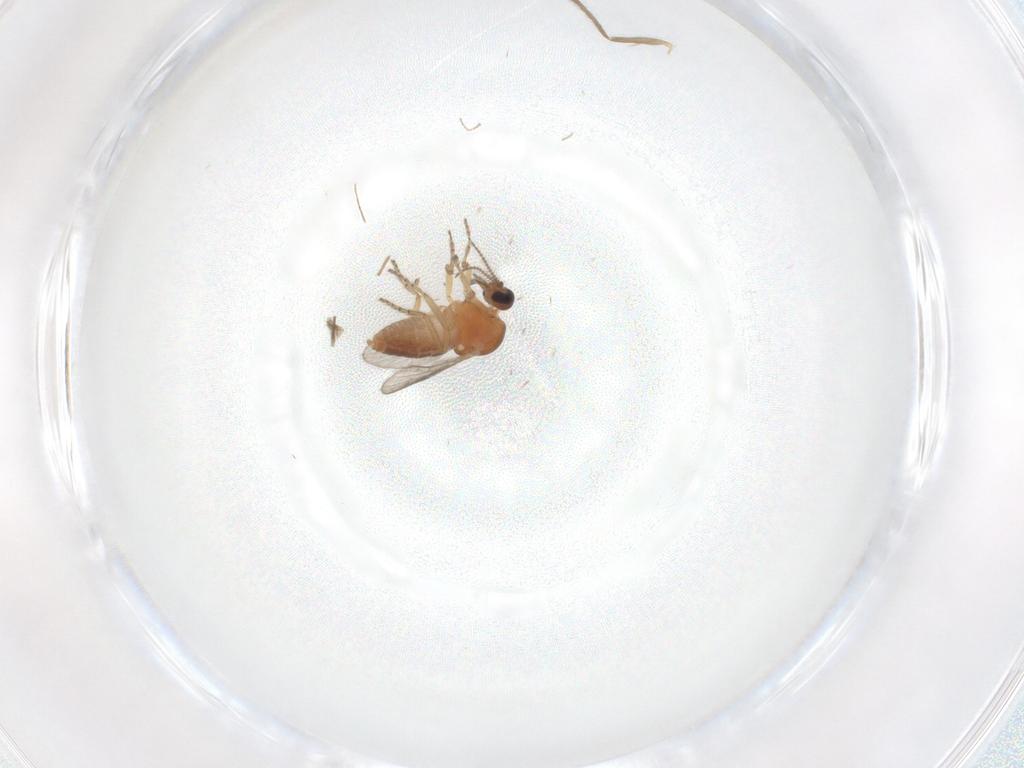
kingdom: Animalia
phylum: Arthropoda
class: Insecta
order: Diptera
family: Ceratopogonidae
